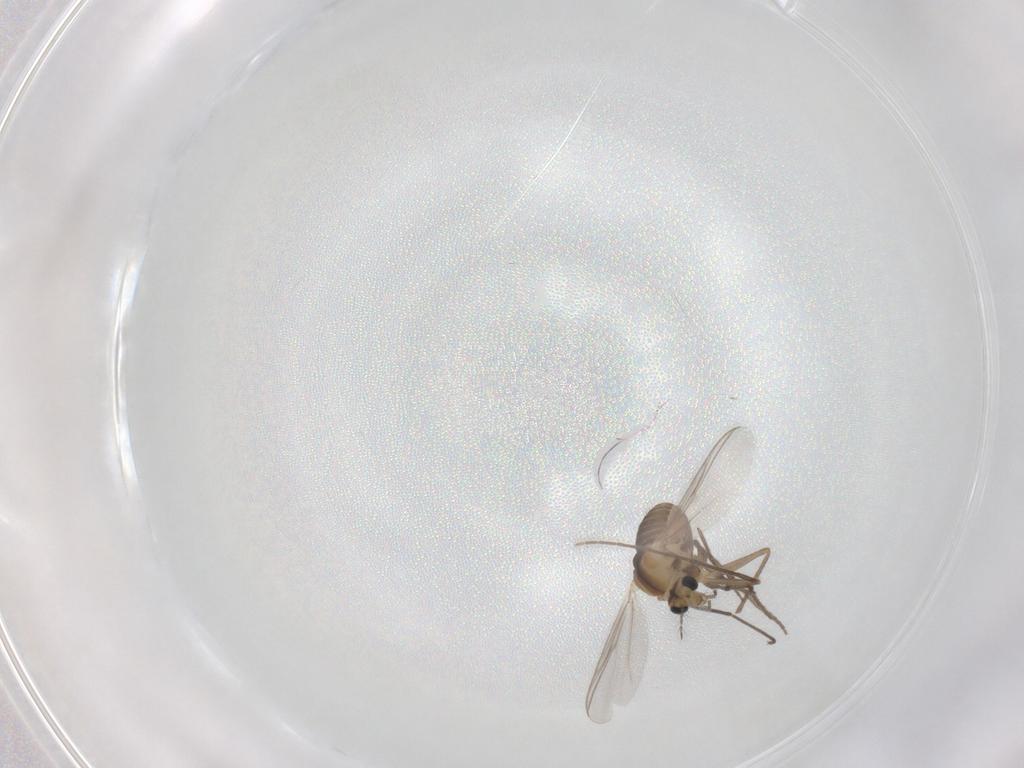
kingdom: Animalia
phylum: Arthropoda
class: Insecta
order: Diptera
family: Chironomidae
